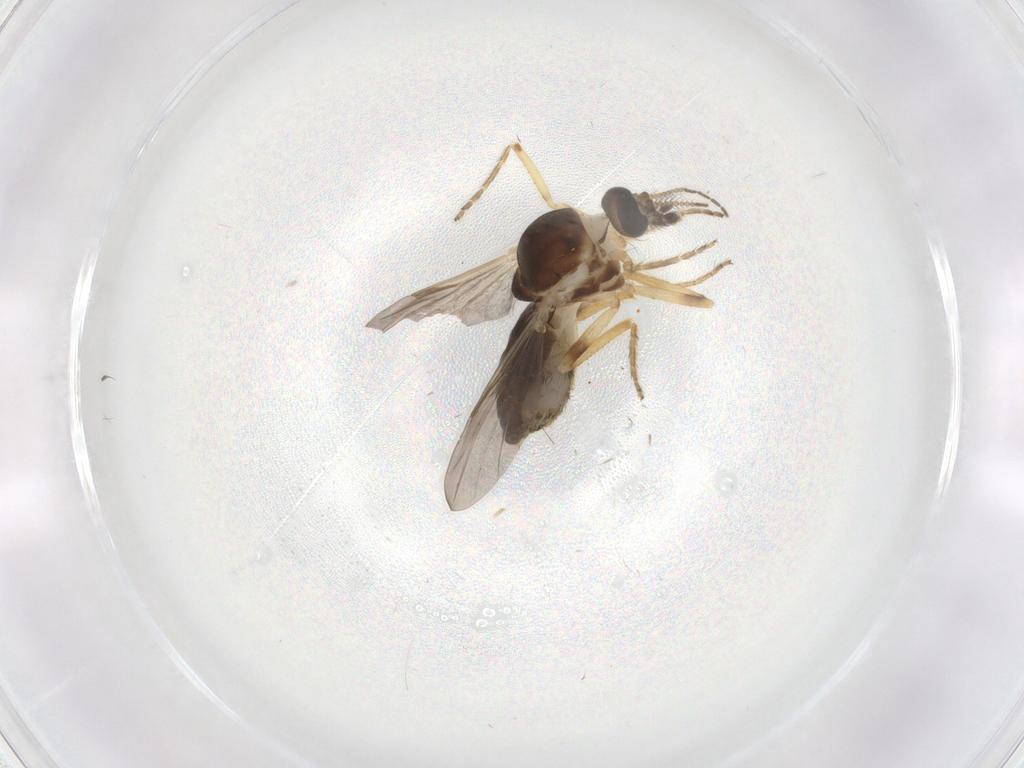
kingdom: Animalia
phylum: Arthropoda
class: Insecta
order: Diptera
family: Ceratopogonidae
